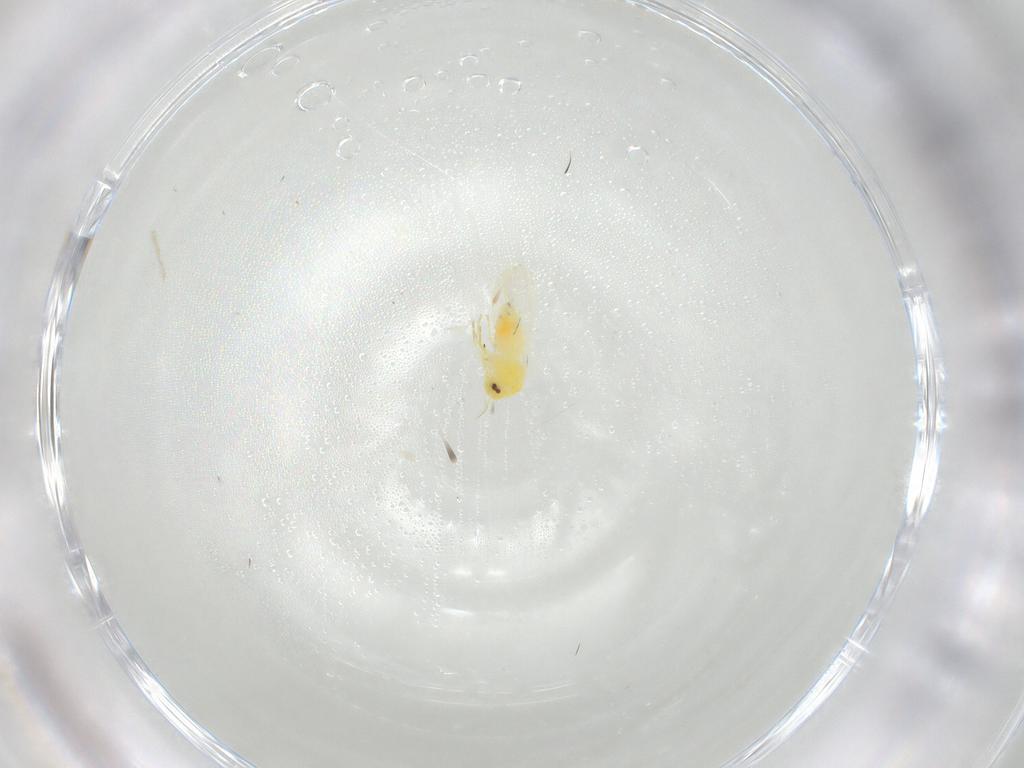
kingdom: Animalia
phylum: Arthropoda
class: Insecta
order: Hemiptera
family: Aleyrodidae
